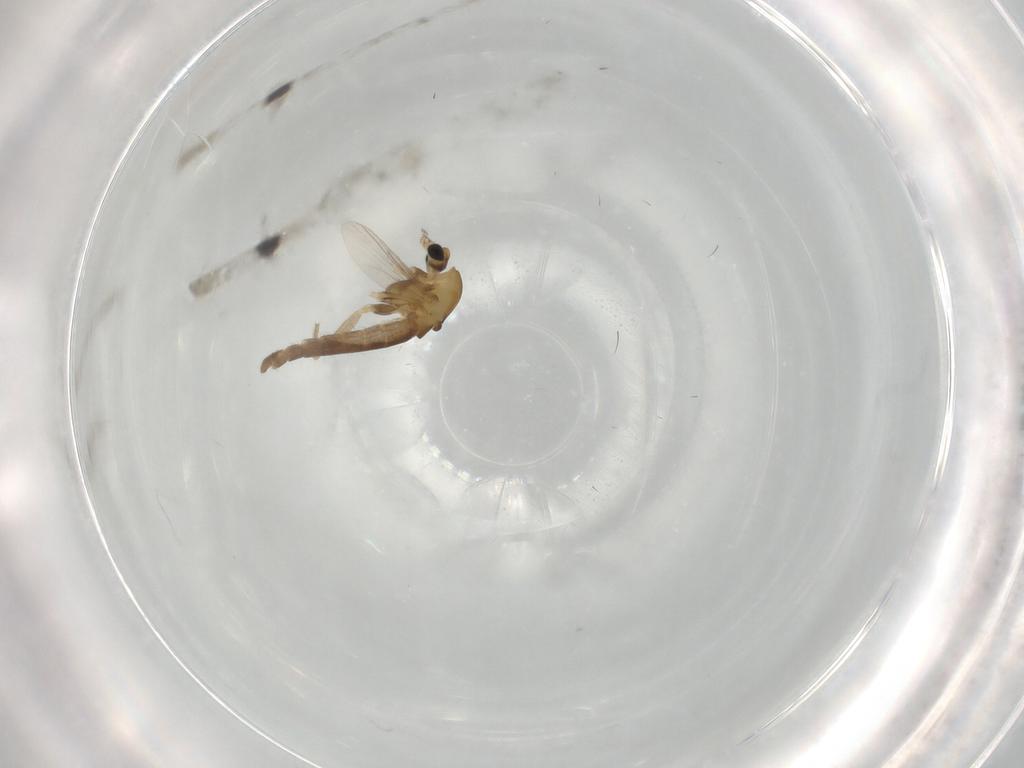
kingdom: Animalia
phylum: Arthropoda
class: Insecta
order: Diptera
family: Chironomidae
